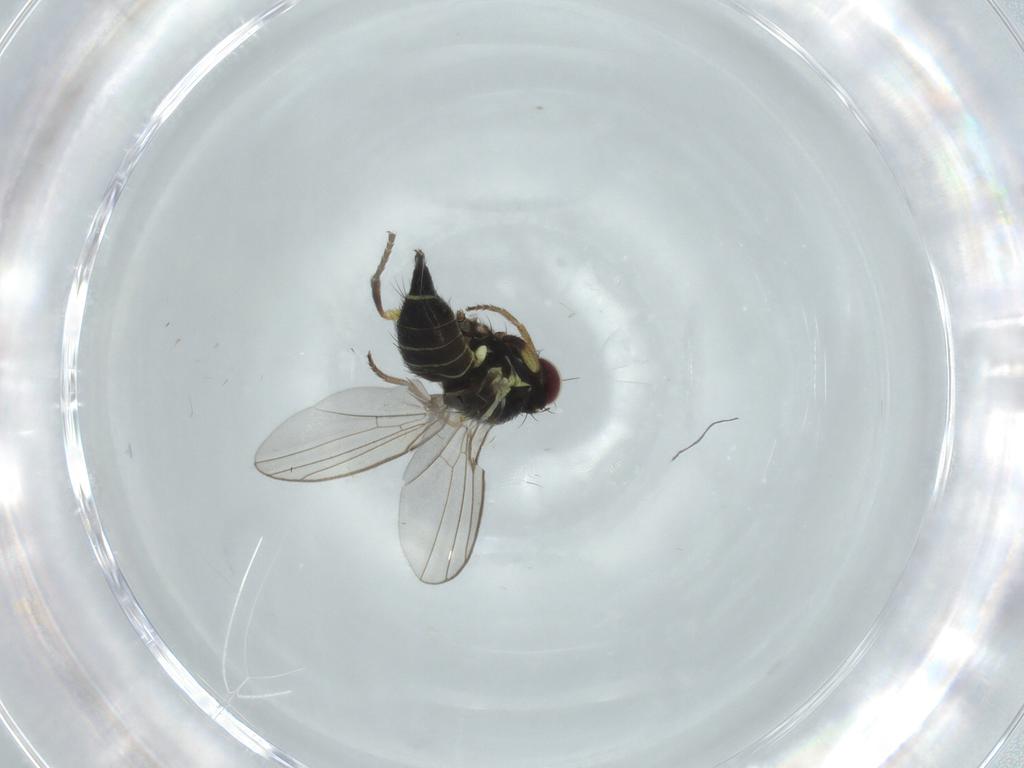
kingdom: Animalia
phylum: Arthropoda
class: Insecta
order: Diptera
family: Agromyzidae
